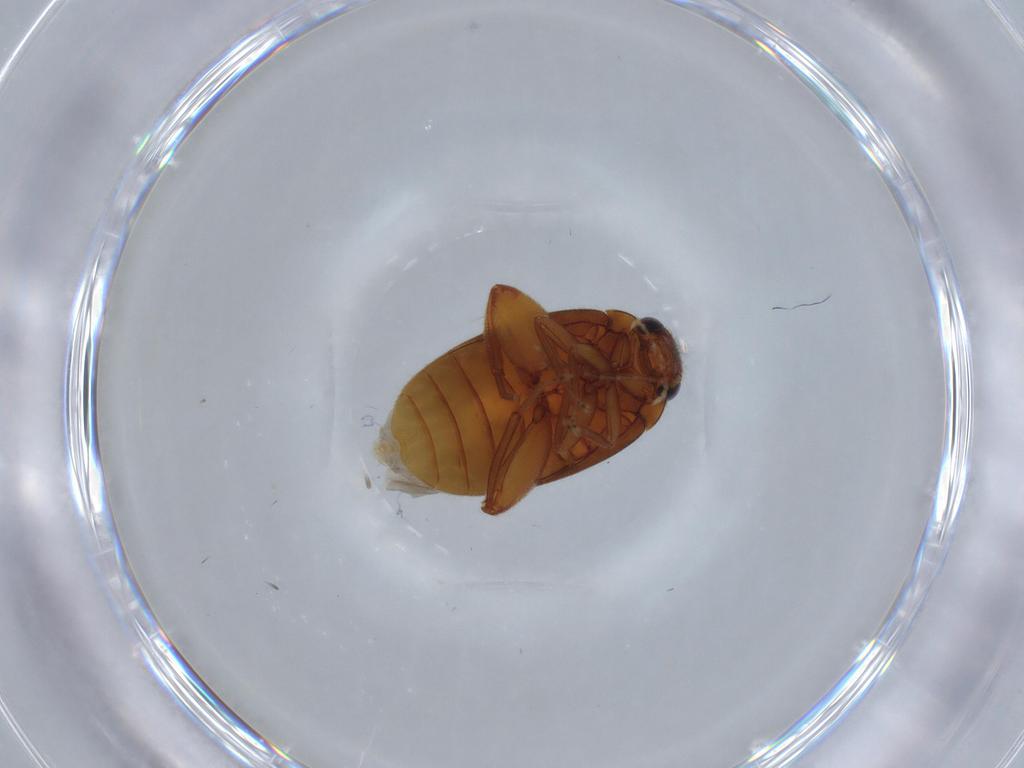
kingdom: Animalia
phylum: Arthropoda
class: Insecta
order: Coleoptera
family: Scirtidae
